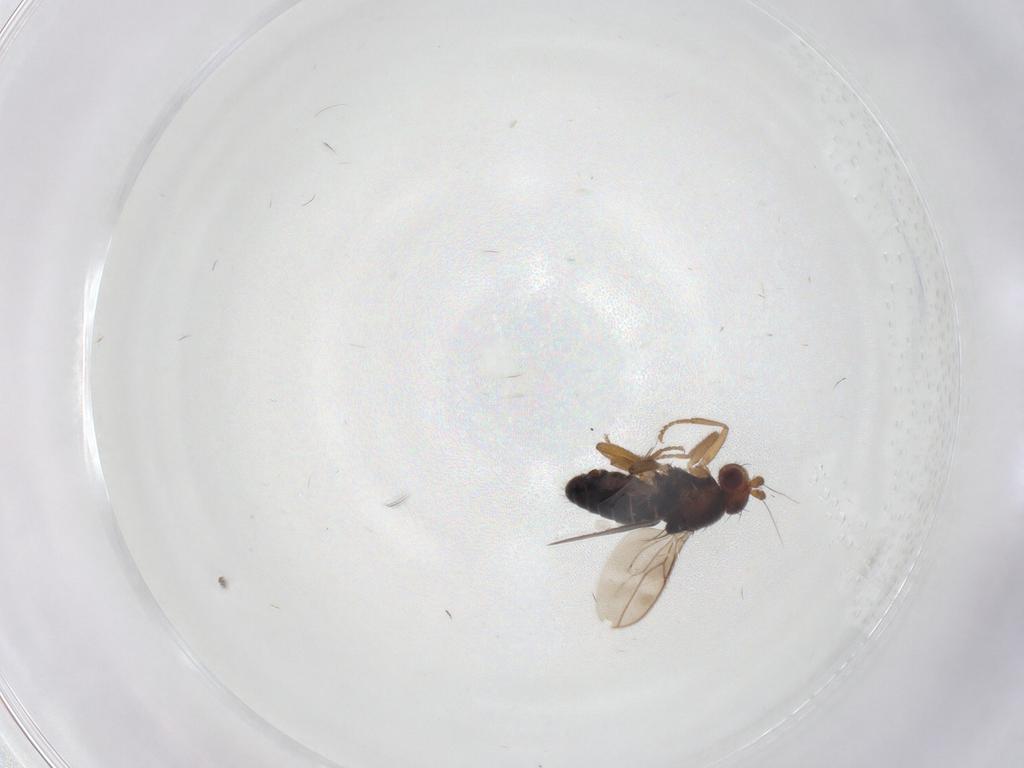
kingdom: Animalia
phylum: Arthropoda
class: Insecta
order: Diptera
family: Sphaeroceridae
